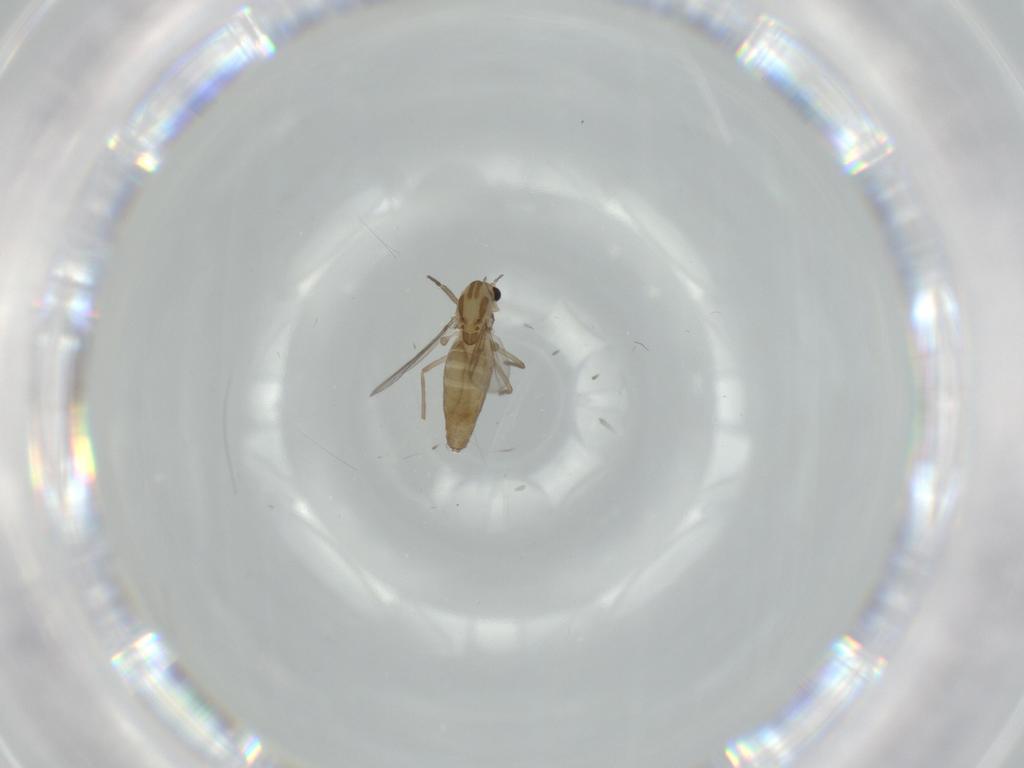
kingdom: Animalia
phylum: Arthropoda
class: Insecta
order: Diptera
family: Chironomidae
